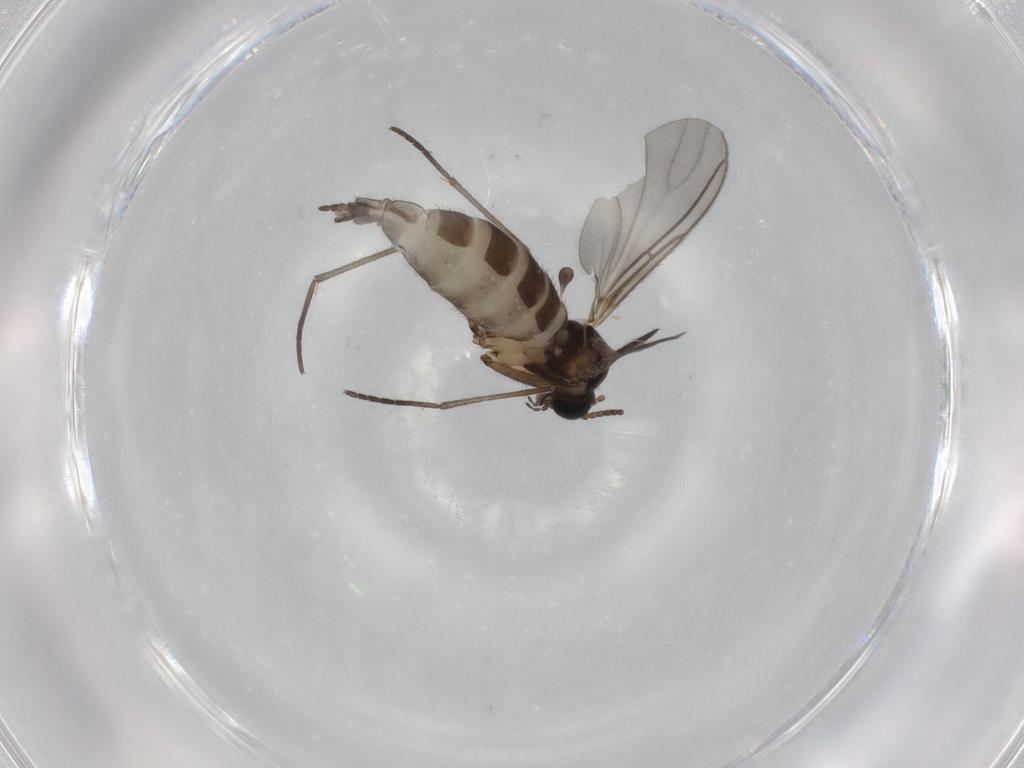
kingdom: Animalia
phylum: Arthropoda
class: Insecta
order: Diptera
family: Sciaridae
